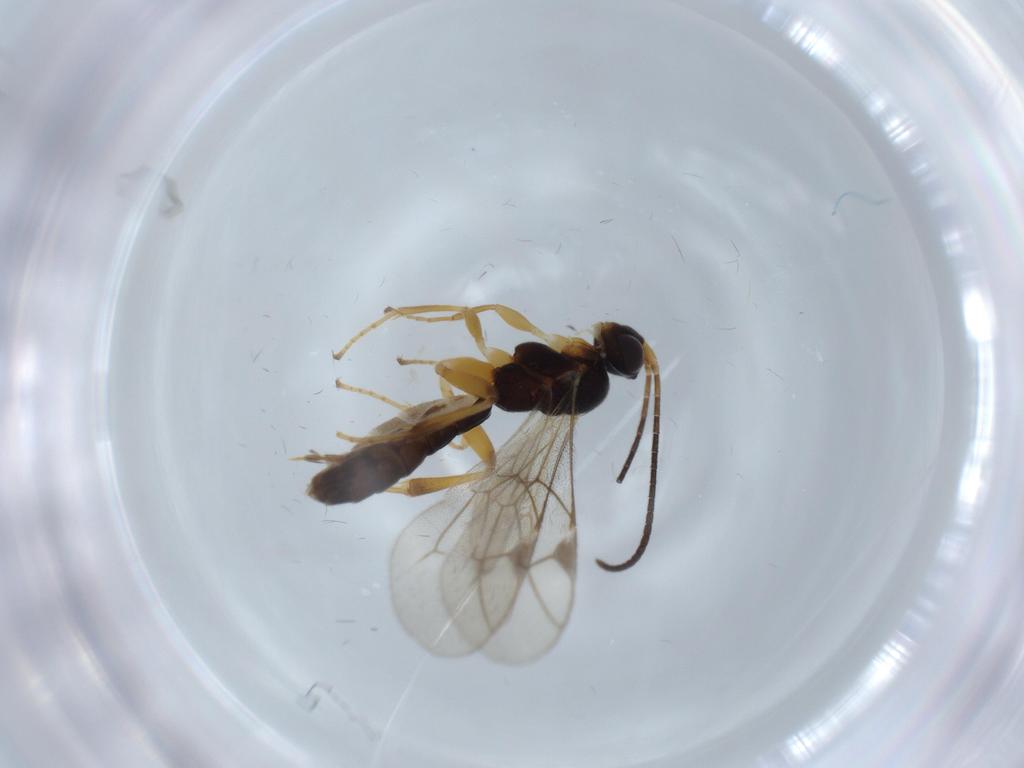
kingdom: Animalia
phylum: Arthropoda
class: Insecta
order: Hymenoptera
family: Ichneumonidae
